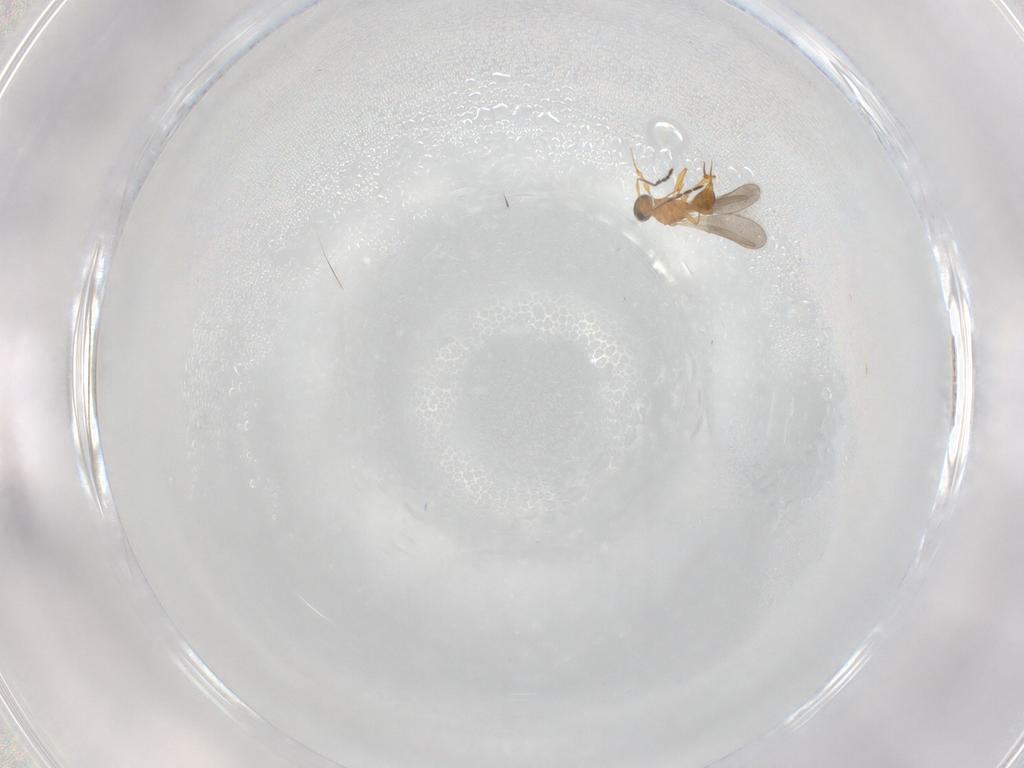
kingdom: Animalia
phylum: Arthropoda
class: Insecta
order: Hymenoptera
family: Platygastridae
